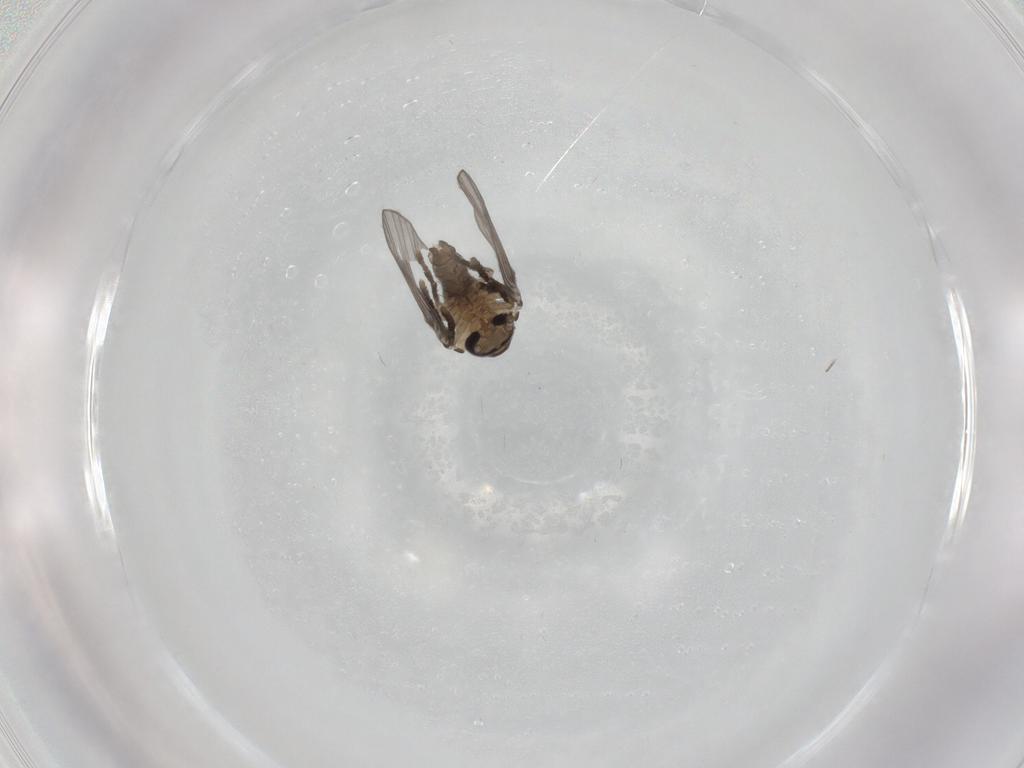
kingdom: Animalia
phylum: Arthropoda
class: Insecta
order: Diptera
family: Psychodidae
